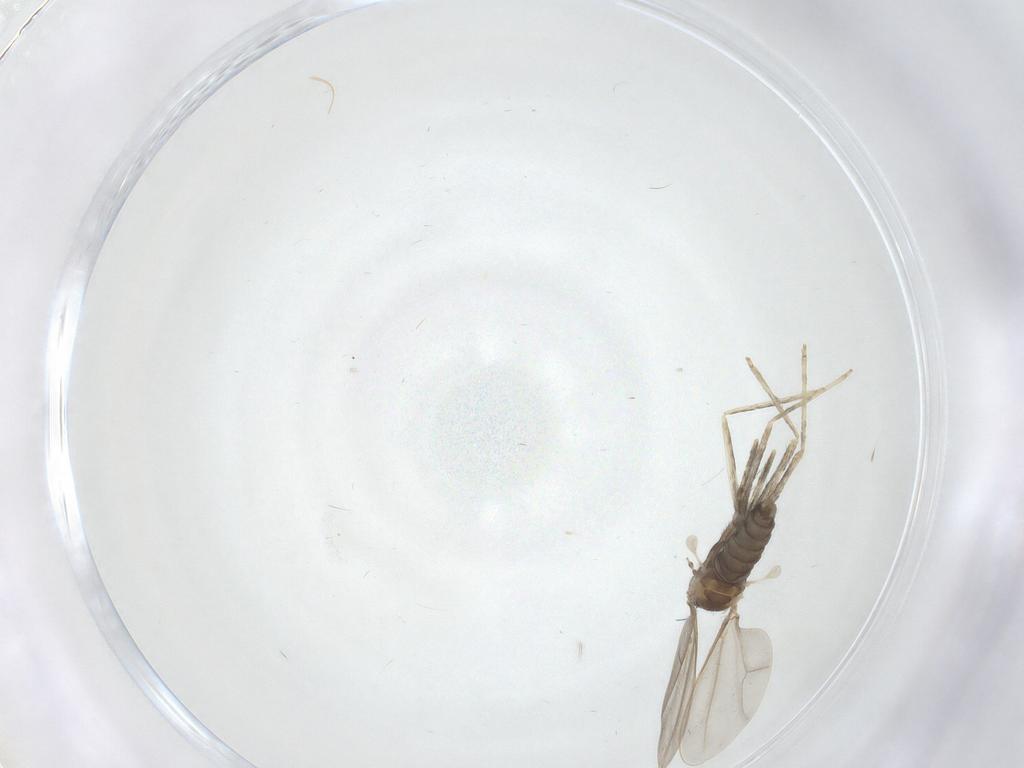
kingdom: Animalia
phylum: Arthropoda
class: Insecta
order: Diptera
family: Cecidomyiidae
